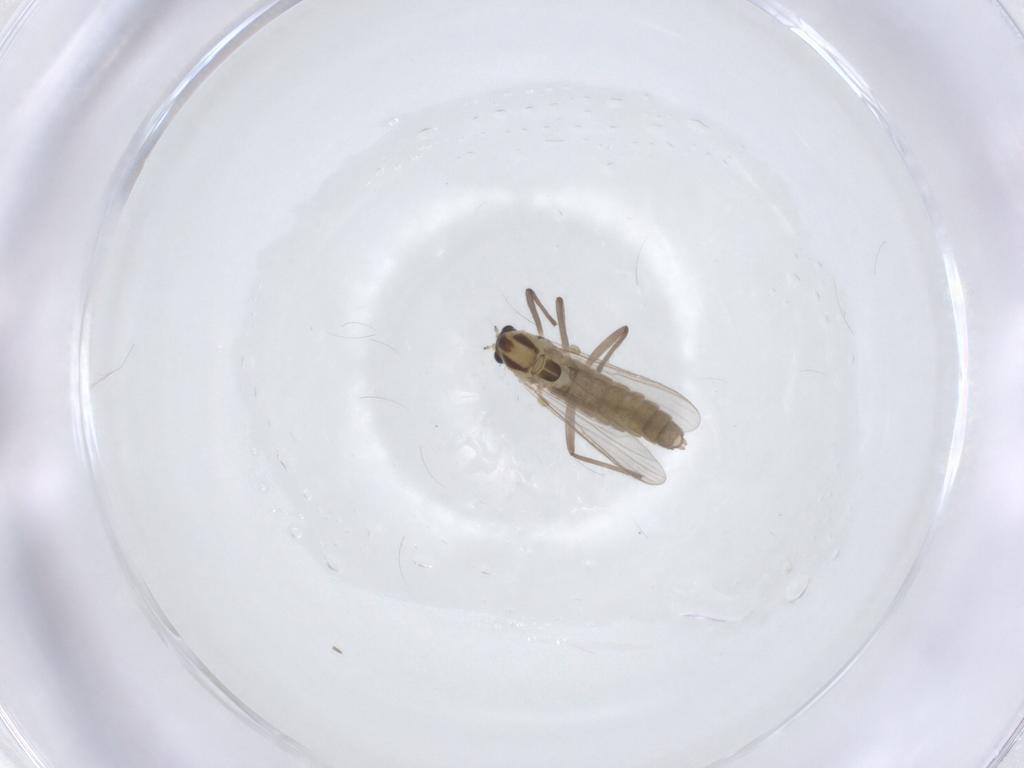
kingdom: Animalia
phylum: Arthropoda
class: Insecta
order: Diptera
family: Chironomidae
